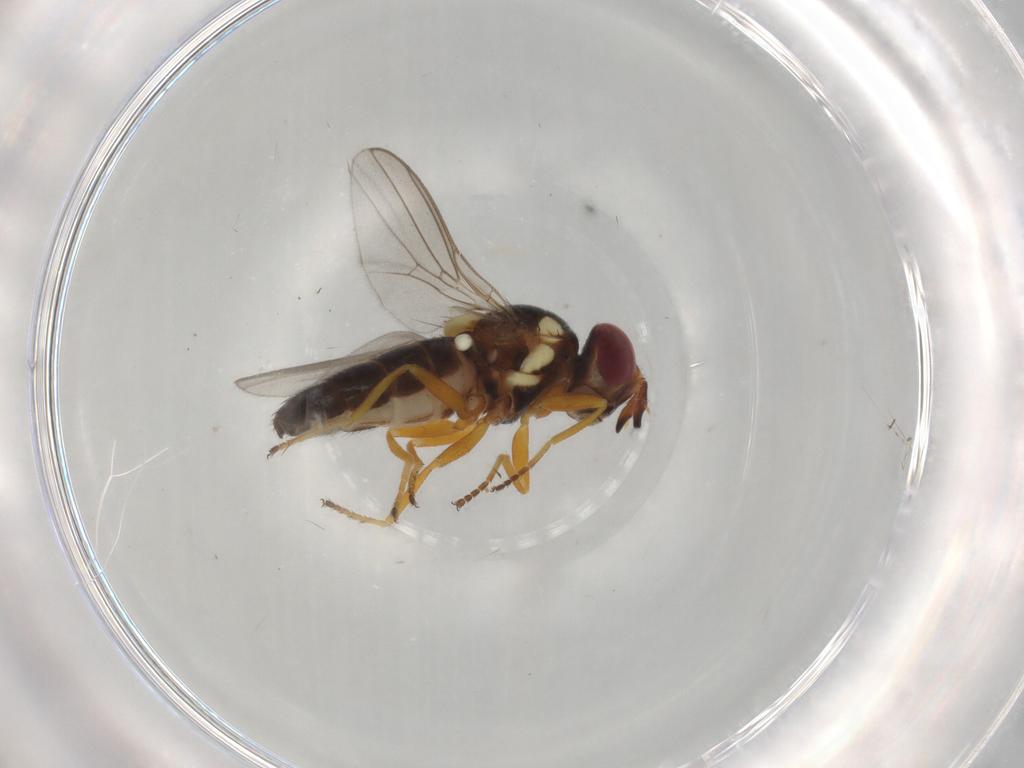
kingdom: Animalia
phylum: Arthropoda
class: Insecta
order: Diptera
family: Chloropidae
